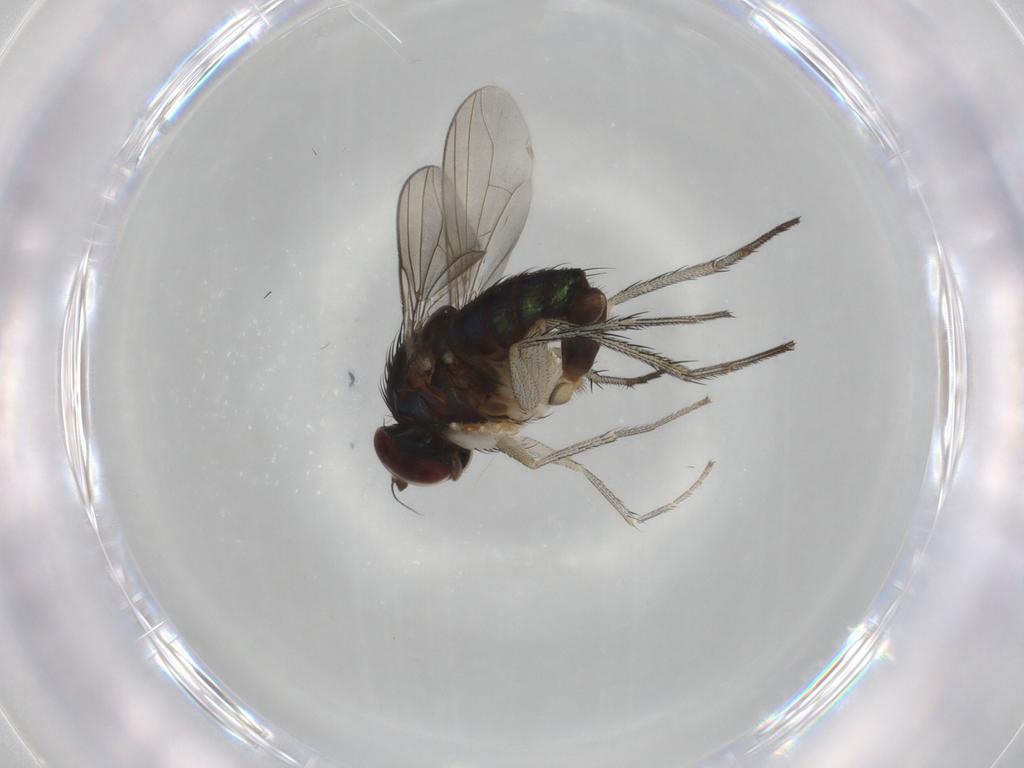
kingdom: Animalia
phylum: Arthropoda
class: Insecta
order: Diptera
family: Dolichopodidae
